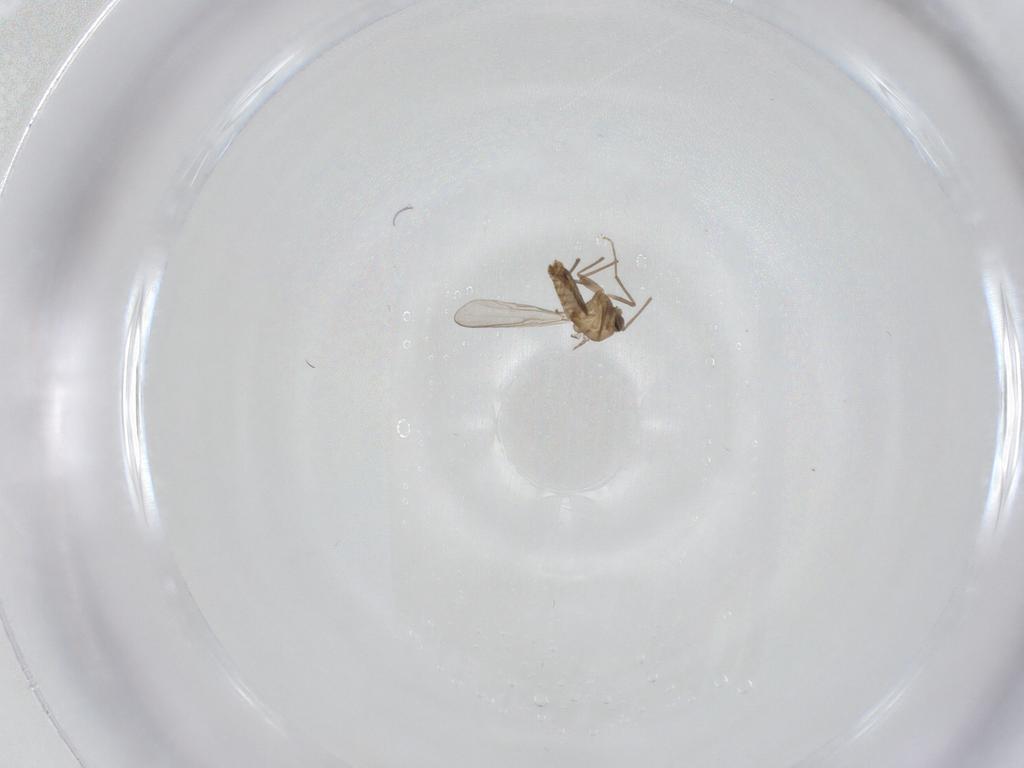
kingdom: Animalia
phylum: Arthropoda
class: Insecta
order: Diptera
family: Chironomidae
